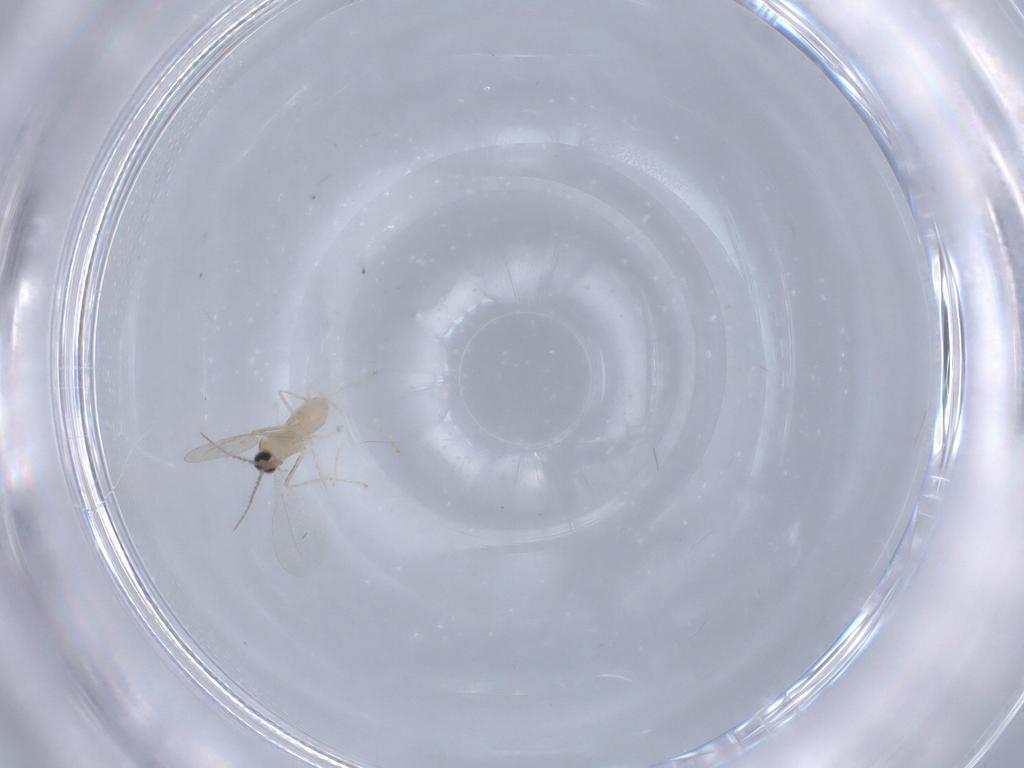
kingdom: Animalia
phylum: Arthropoda
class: Insecta
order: Diptera
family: Cecidomyiidae
